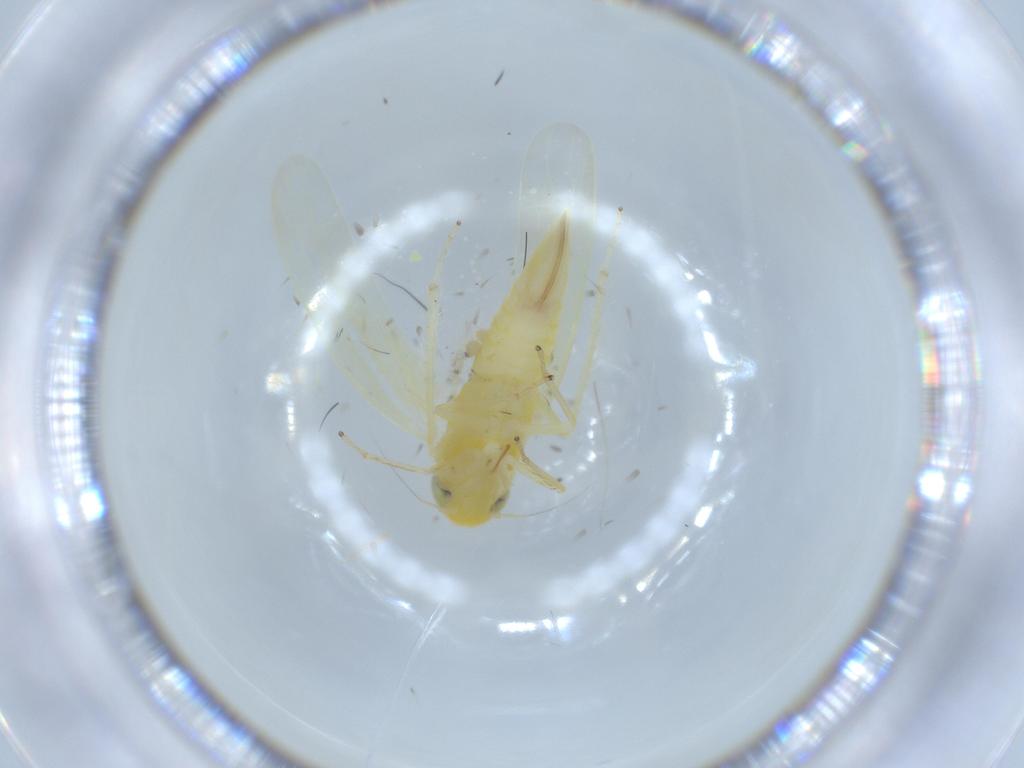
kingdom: Animalia
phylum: Arthropoda
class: Insecta
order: Hemiptera
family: Cicadellidae
